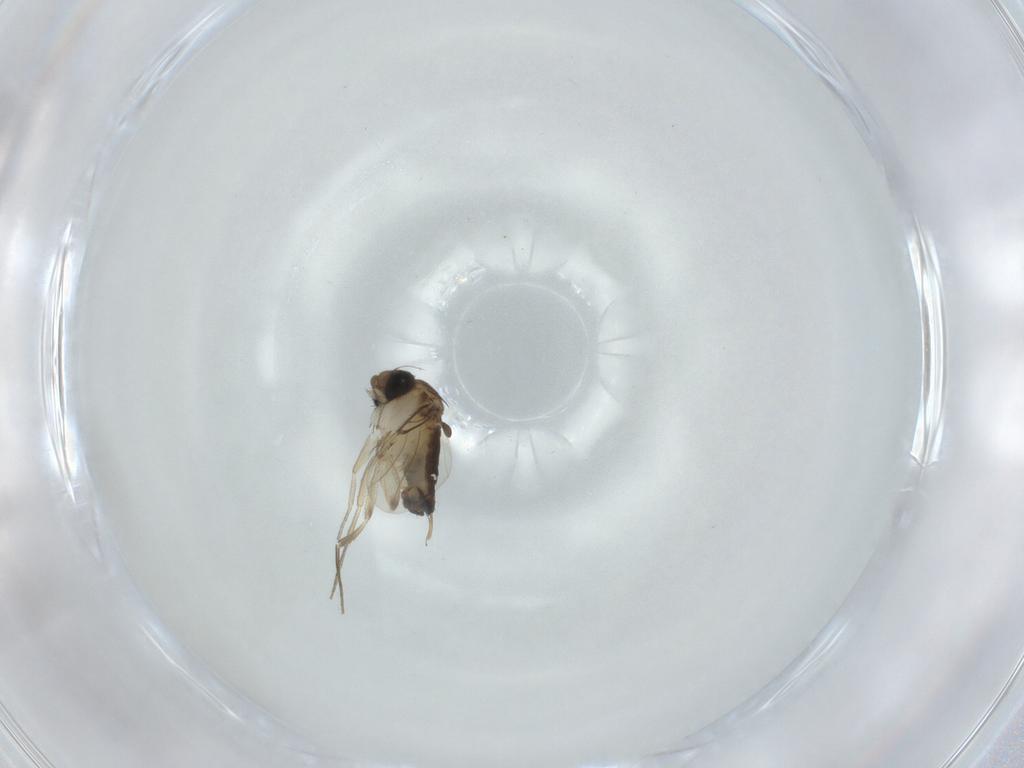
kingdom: Animalia
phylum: Arthropoda
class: Insecta
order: Diptera
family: Phoridae
